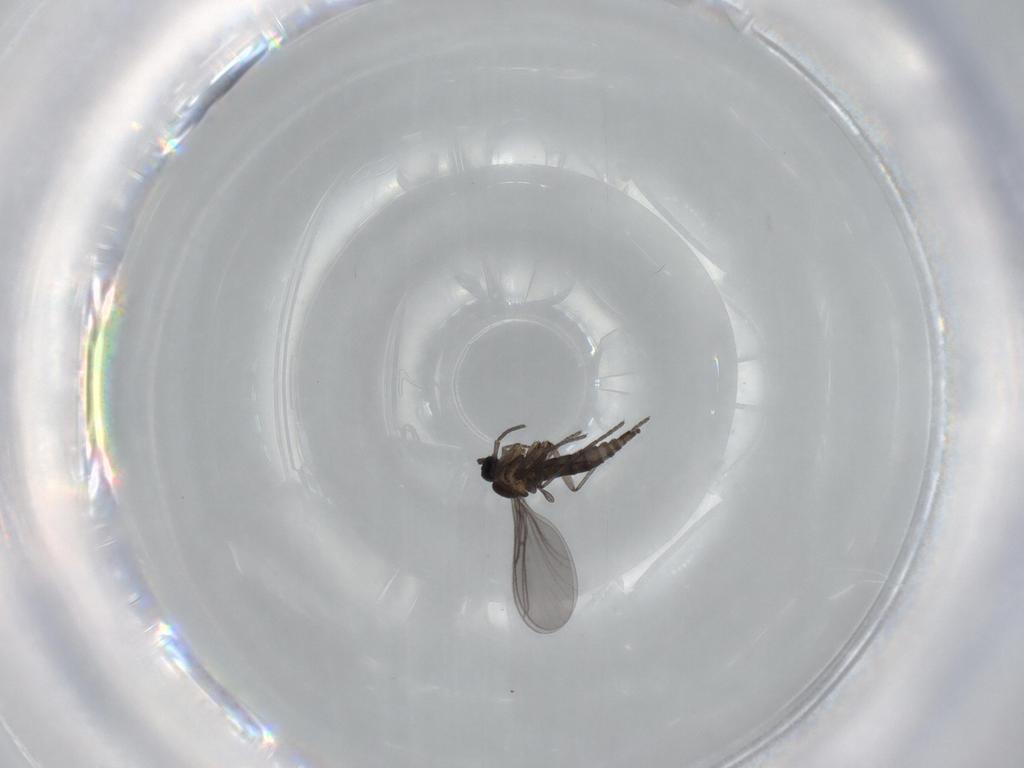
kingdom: Animalia
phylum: Arthropoda
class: Insecta
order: Diptera
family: Cecidomyiidae
